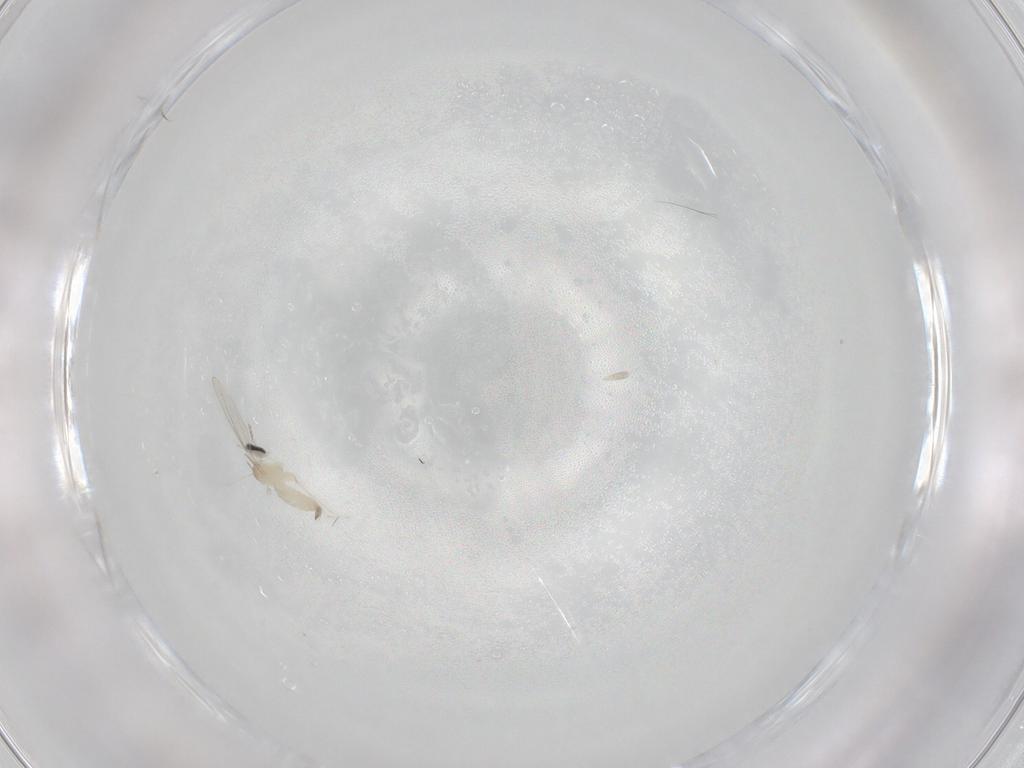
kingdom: Animalia
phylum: Arthropoda
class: Insecta
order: Diptera
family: Cecidomyiidae
